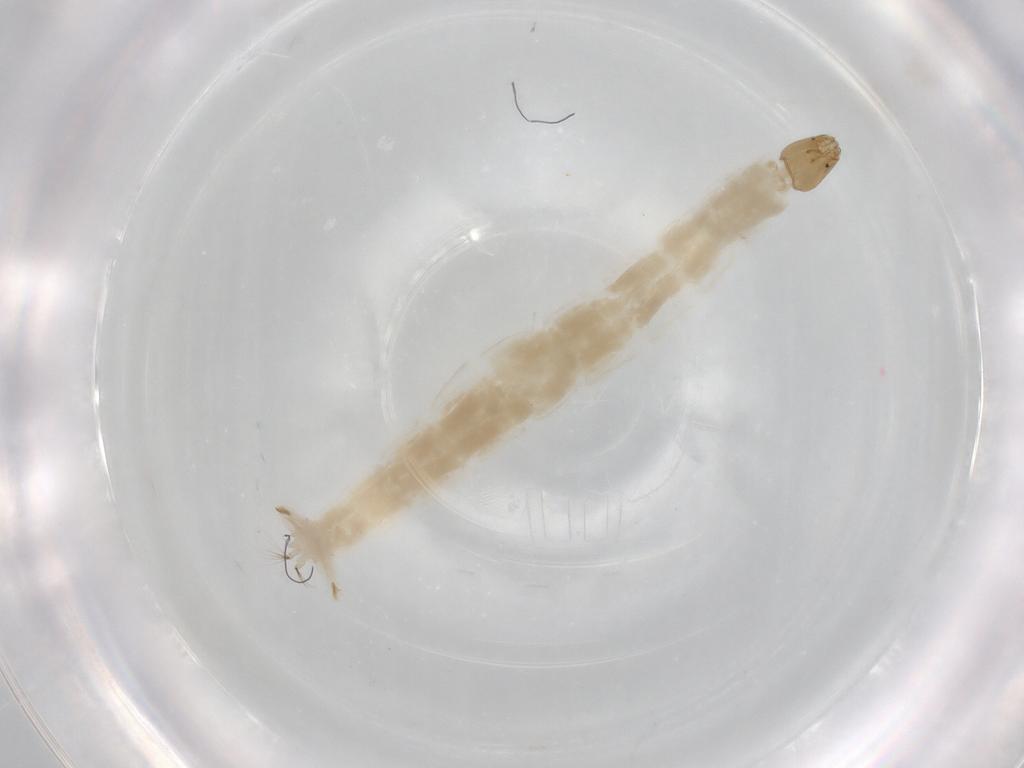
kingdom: Animalia
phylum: Arthropoda
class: Insecta
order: Diptera
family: Chironomidae
